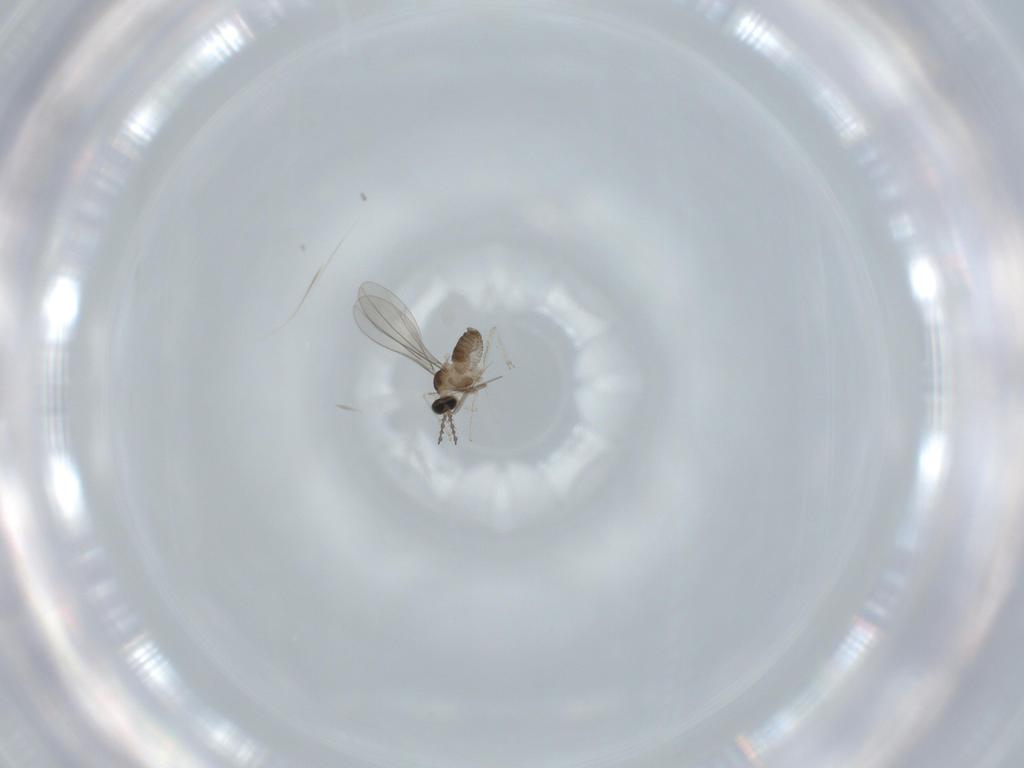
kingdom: Animalia
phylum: Arthropoda
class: Insecta
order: Diptera
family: Cecidomyiidae
